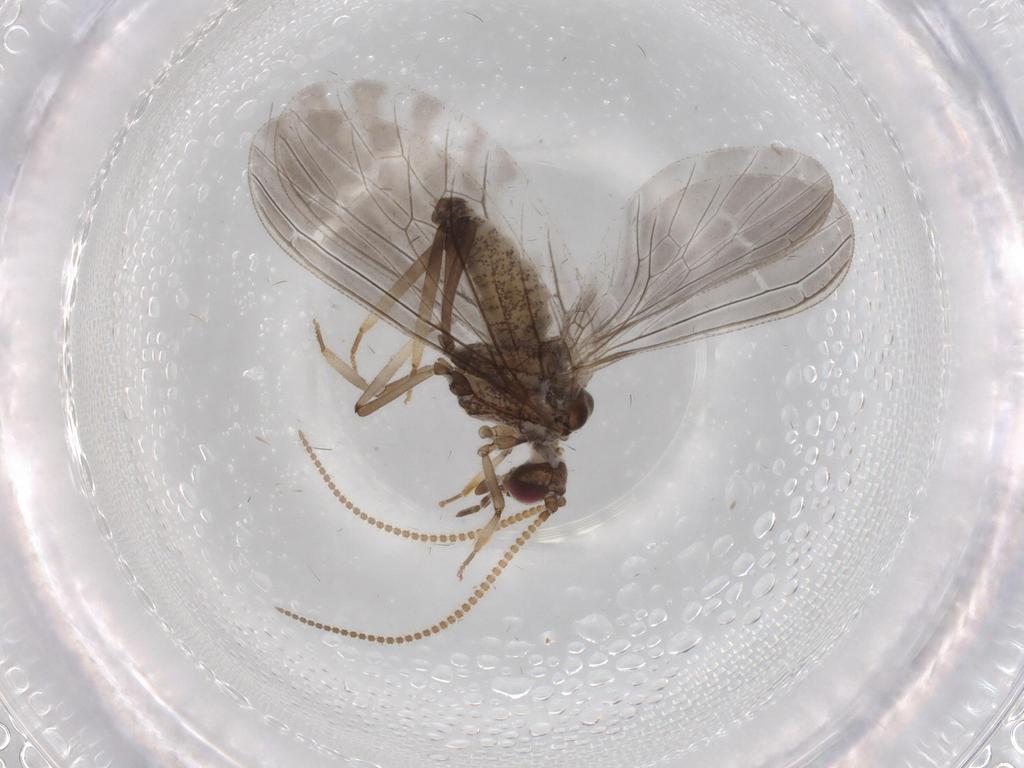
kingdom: Animalia
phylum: Arthropoda
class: Insecta
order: Neuroptera
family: Coniopterygidae
